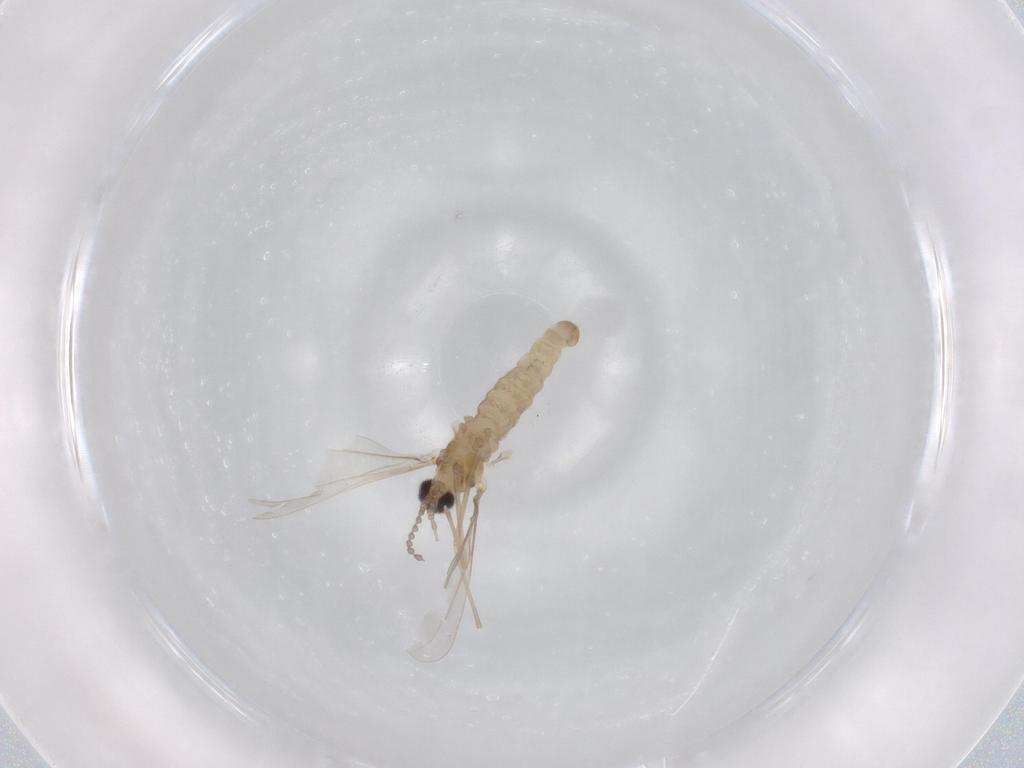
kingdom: Animalia
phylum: Arthropoda
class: Insecta
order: Diptera
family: Cecidomyiidae
